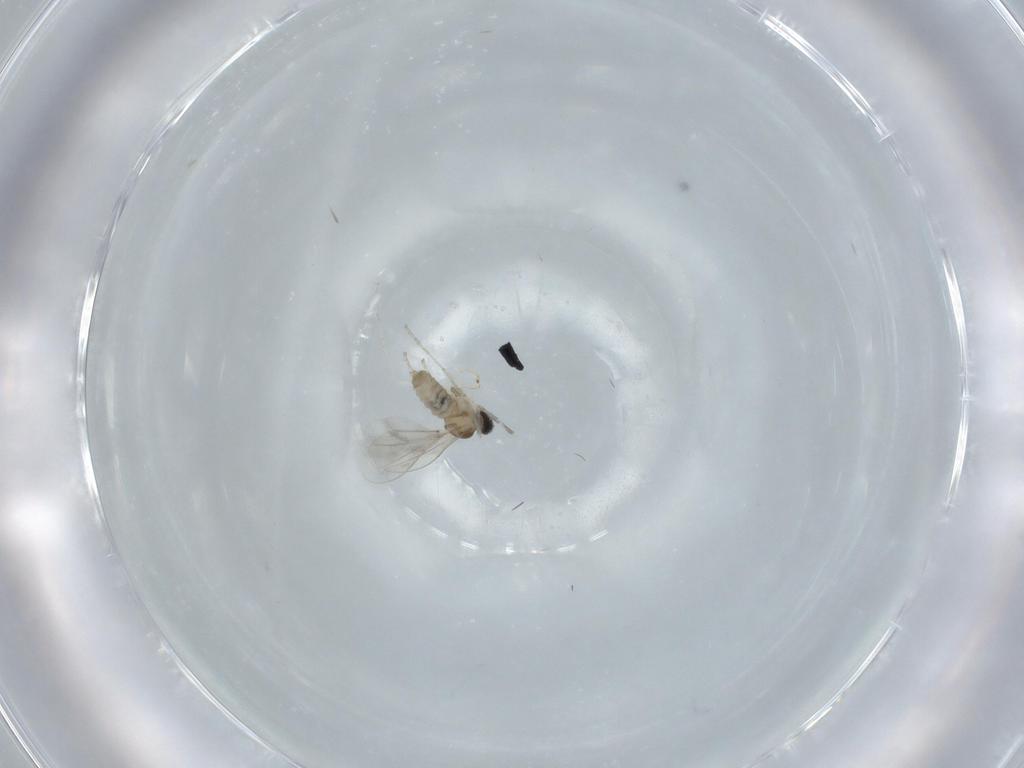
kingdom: Animalia
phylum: Arthropoda
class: Insecta
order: Diptera
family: Cecidomyiidae
